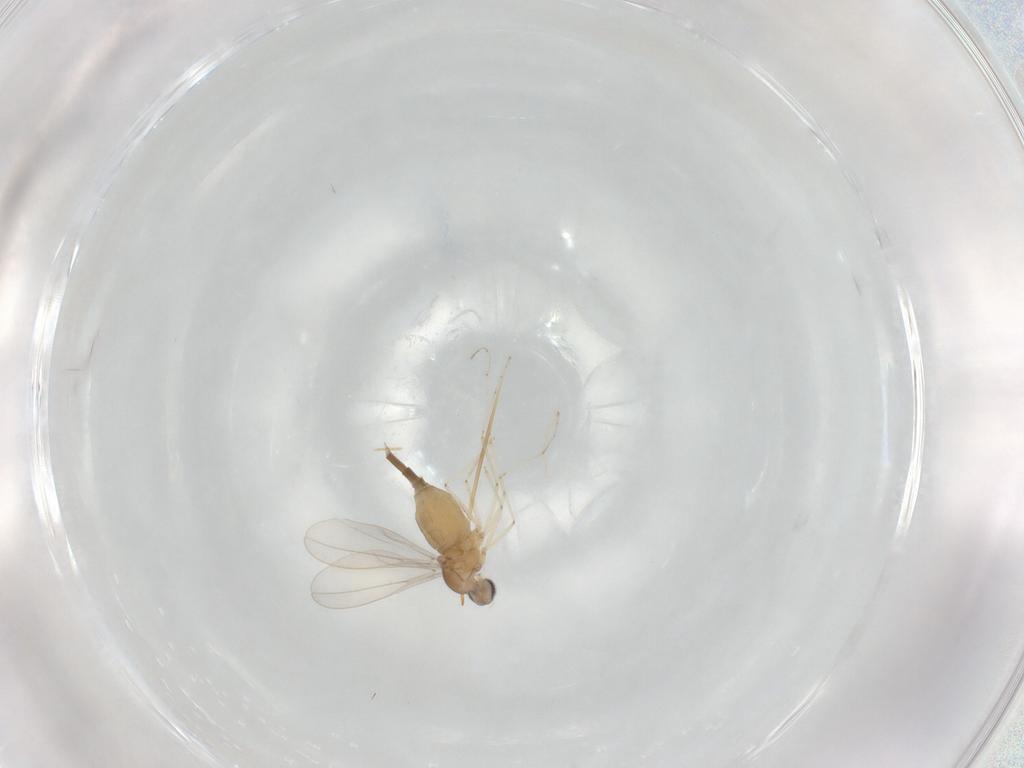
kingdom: Animalia
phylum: Arthropoda
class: Insecta
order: Diptera
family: Cecidomyiidae
